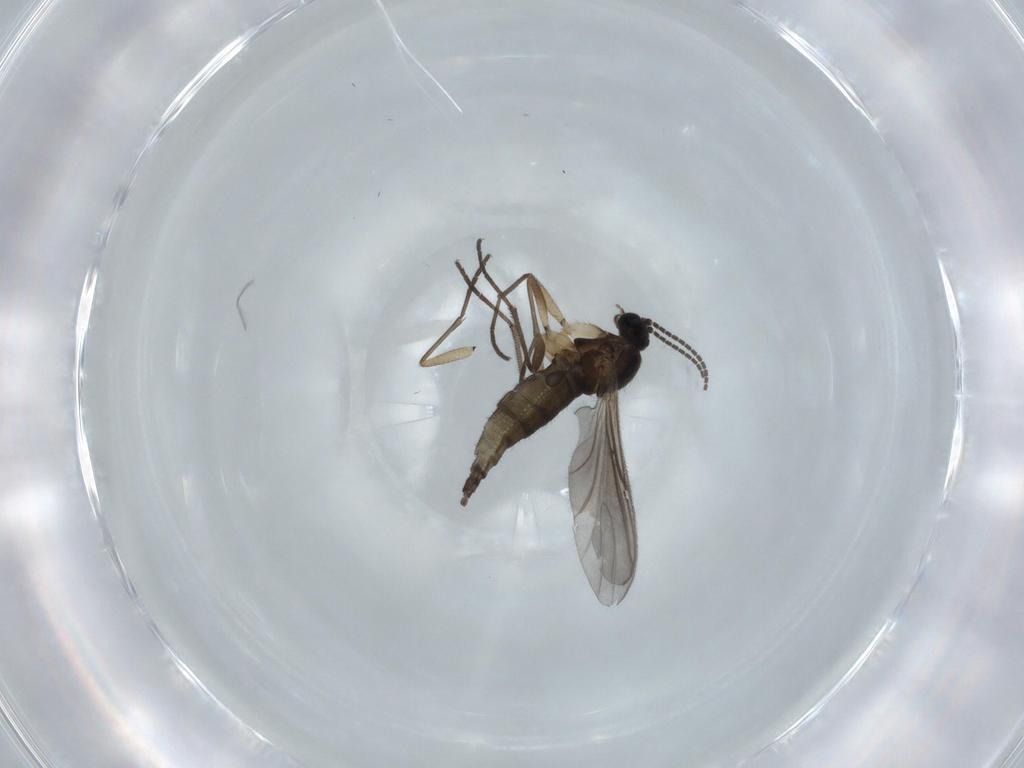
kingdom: Animalia
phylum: Arthropoda
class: Insecta
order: Diptera
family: Sciaridae
